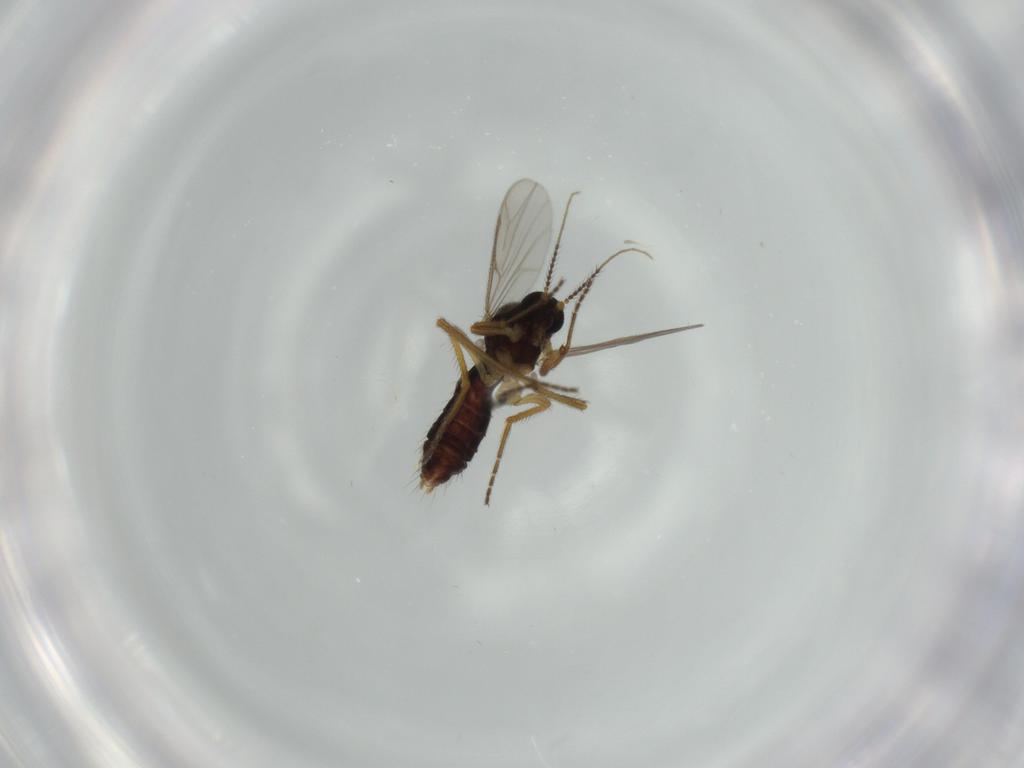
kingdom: Animalia
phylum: Arthropoda
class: Insecta
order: Diptera
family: Ceratopogonidae
